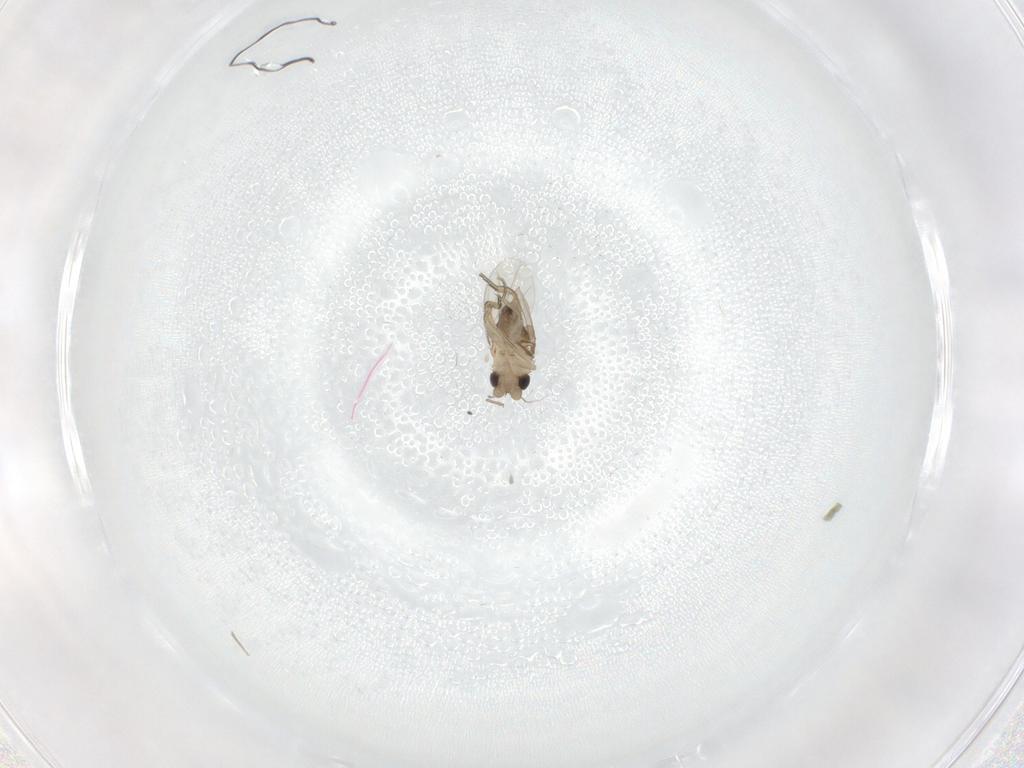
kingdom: Animalia
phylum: Arthropoda
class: Insecta
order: Diptera
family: Phoridae
